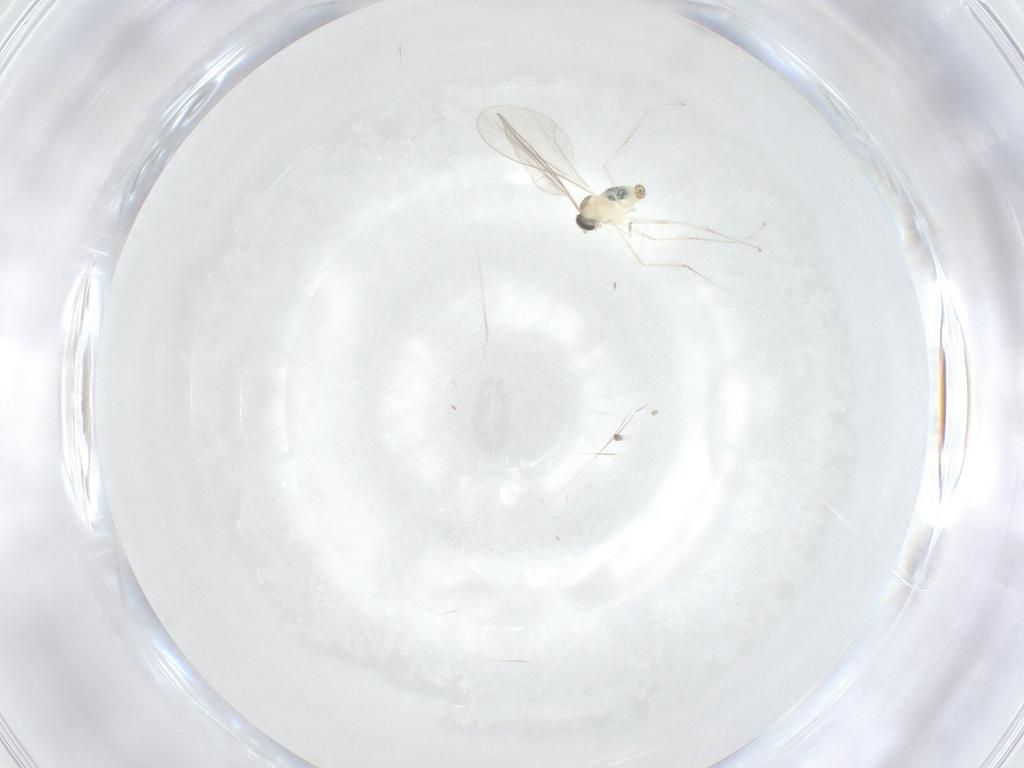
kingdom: Animalia
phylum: Arthropoda
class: Insecta
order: Diptera
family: Cecidomyiidae
